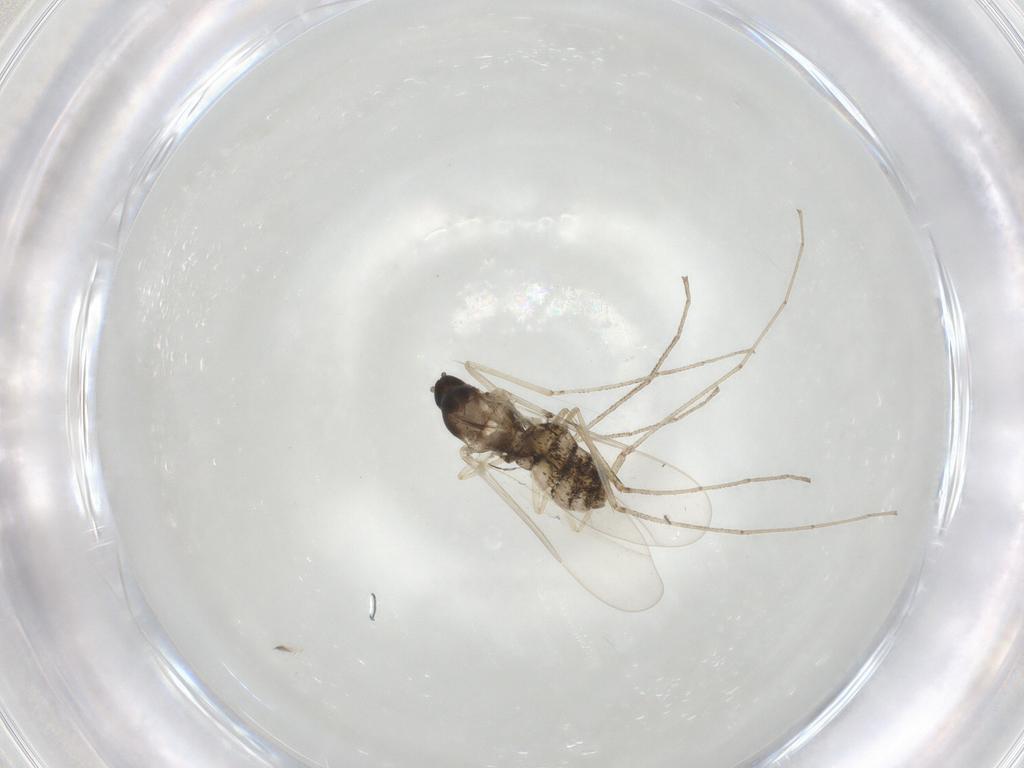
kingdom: Animalia
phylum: Arthropoda
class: Insecta
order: Diptera
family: Cecidomyiidae
